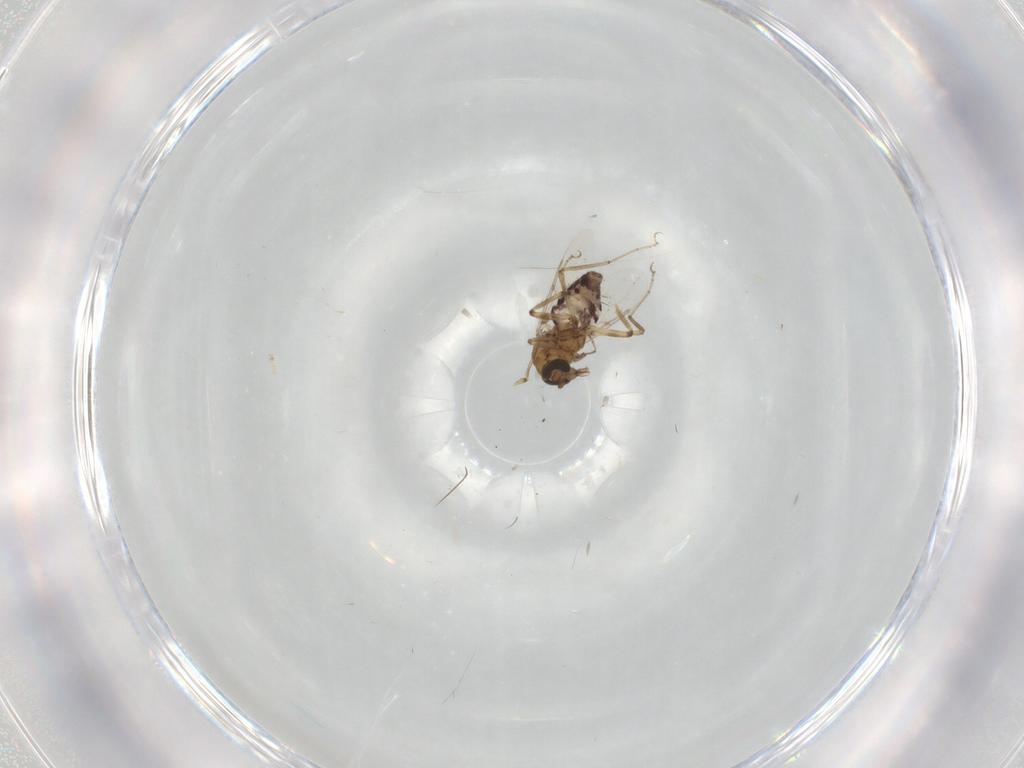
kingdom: Animalia
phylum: Arthropoda
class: Insecta
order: Diptera
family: Ceratopogonidae
